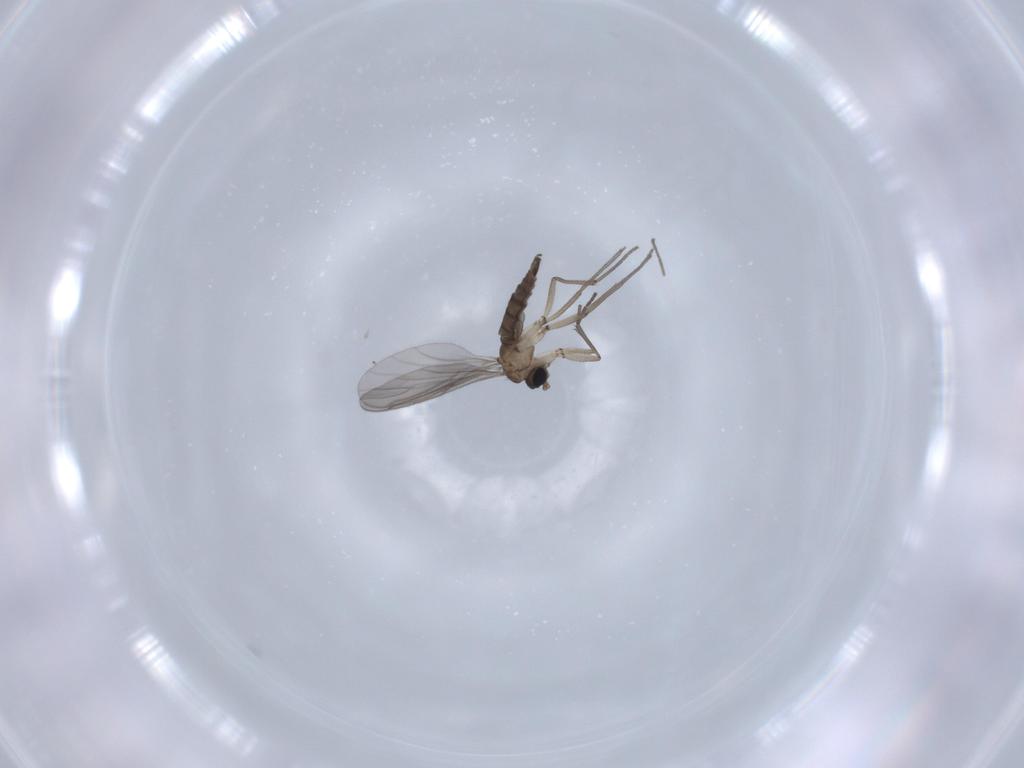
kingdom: Animalia
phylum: Arthropoda
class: Insecta
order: Diptera
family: Sciaridae
